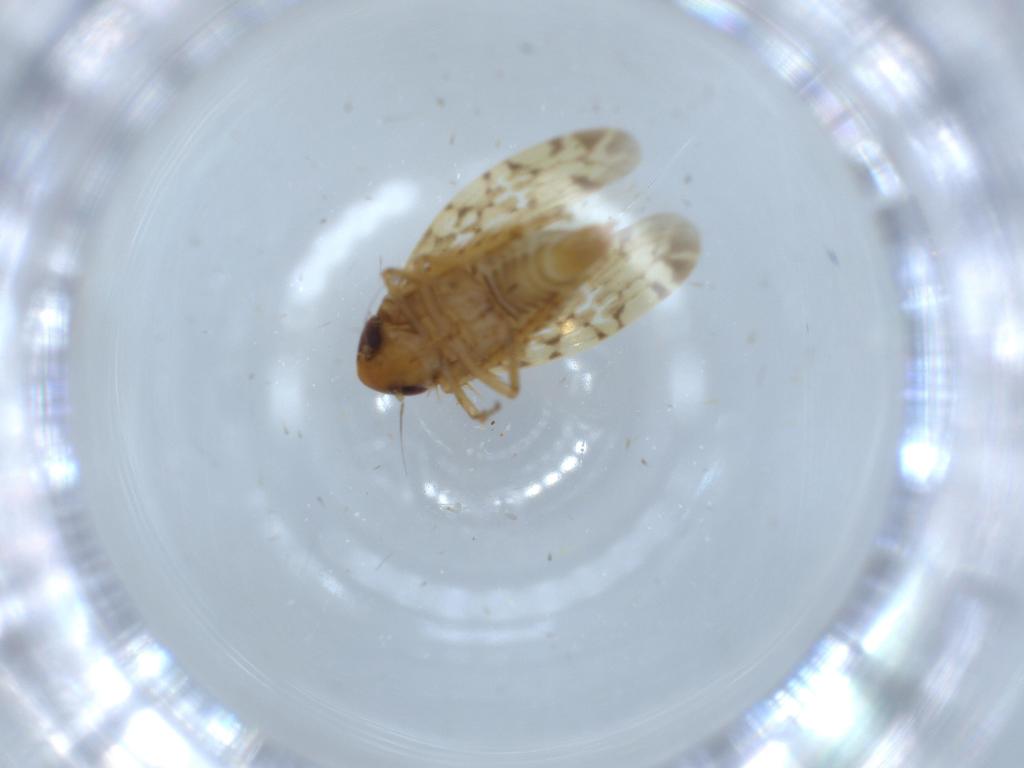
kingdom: Animalia
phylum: Arthropoda
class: Insecta
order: Hemiptera
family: Cicadellidae
